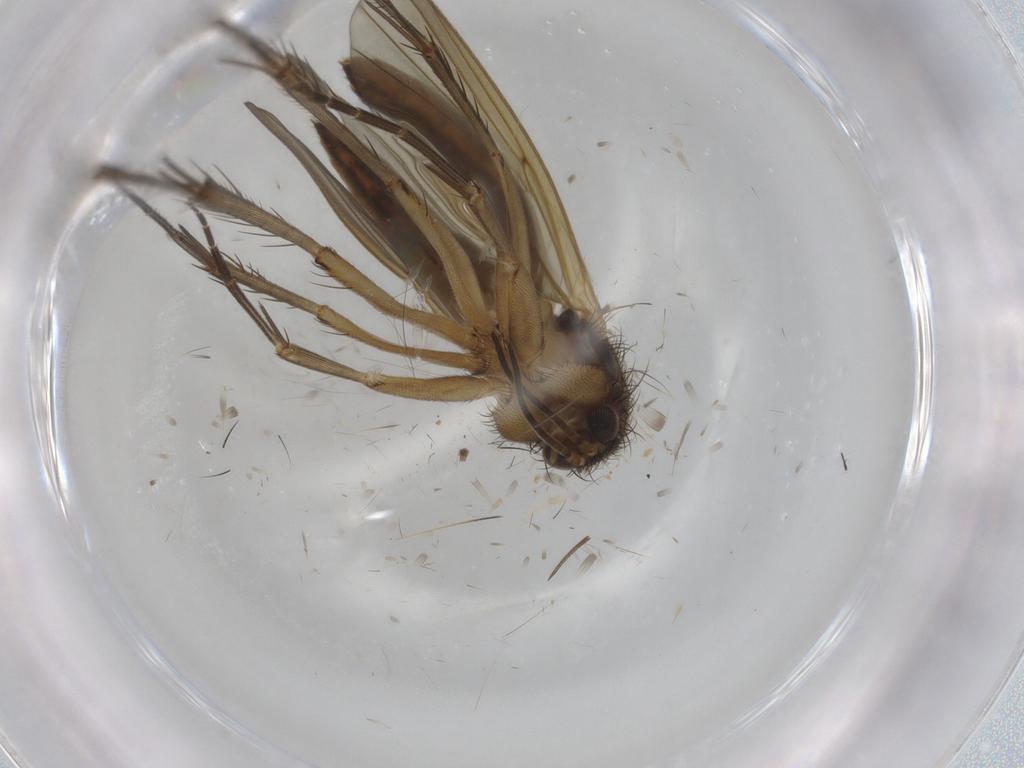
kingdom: Animalia
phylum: Arthropoda
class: Insecta
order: Diptera
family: Mycetophilidae
